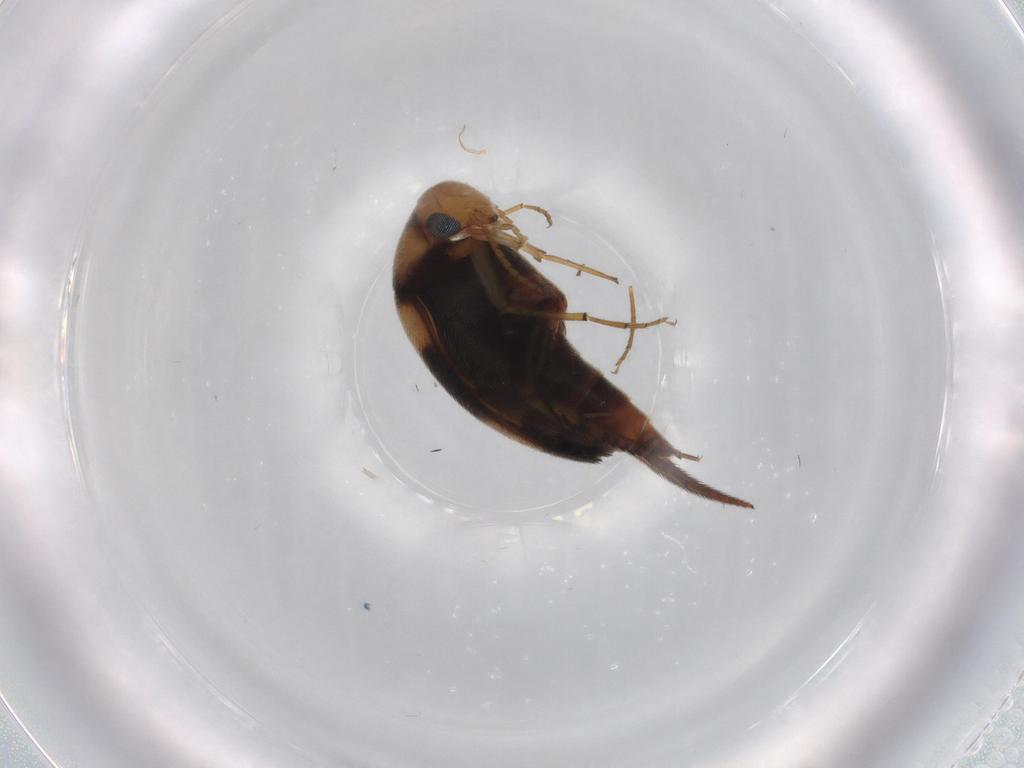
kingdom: Animalia
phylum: Arthropoda
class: Insecta
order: Coleoptera
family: Mordellidae
